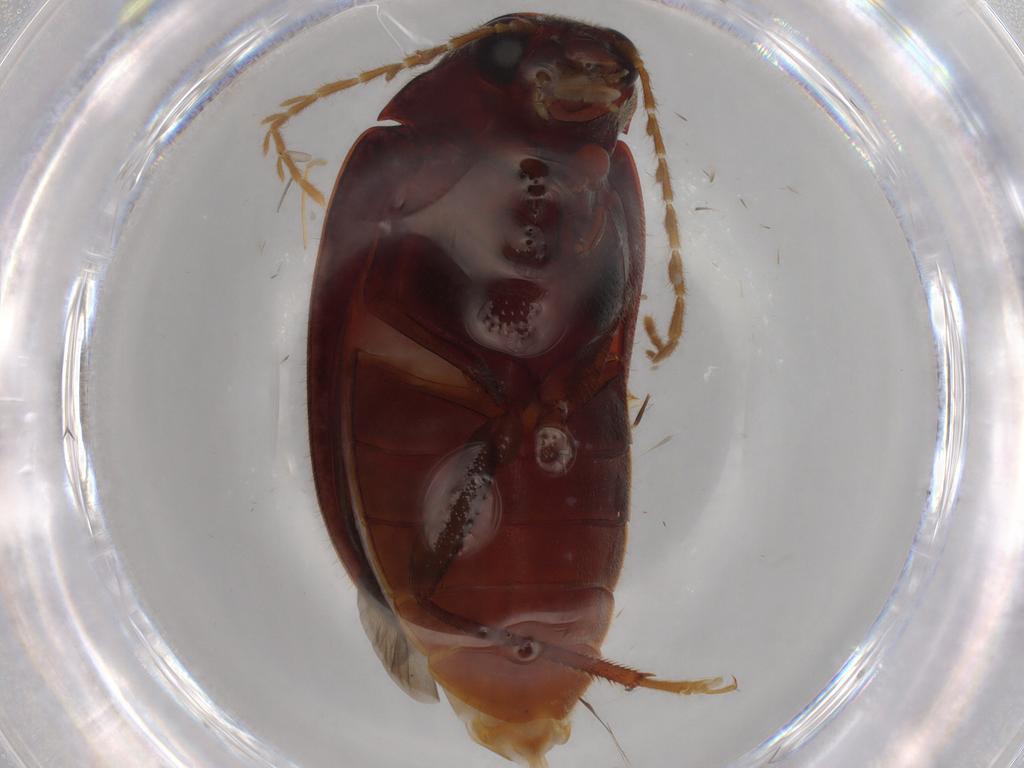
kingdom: Animalia
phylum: Arthropoda
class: Insecta
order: Coleoptera
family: Ptilodactylidae
